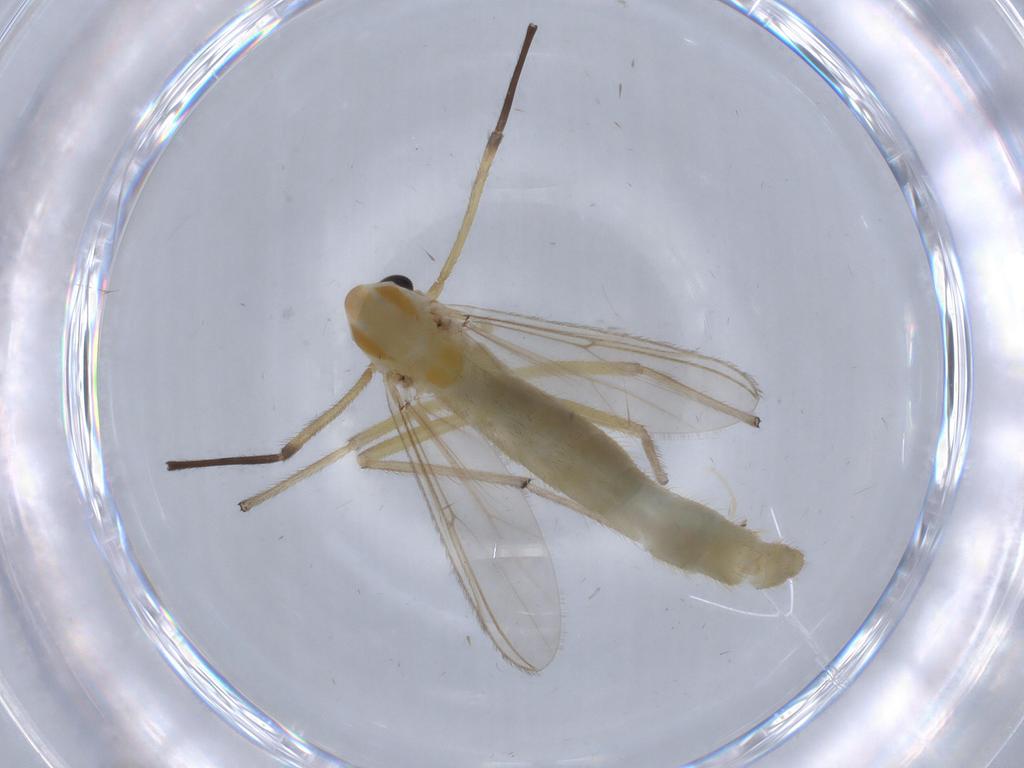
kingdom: Animalia
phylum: Arthropoda
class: Insecta
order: Diptera
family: Chironomidae
